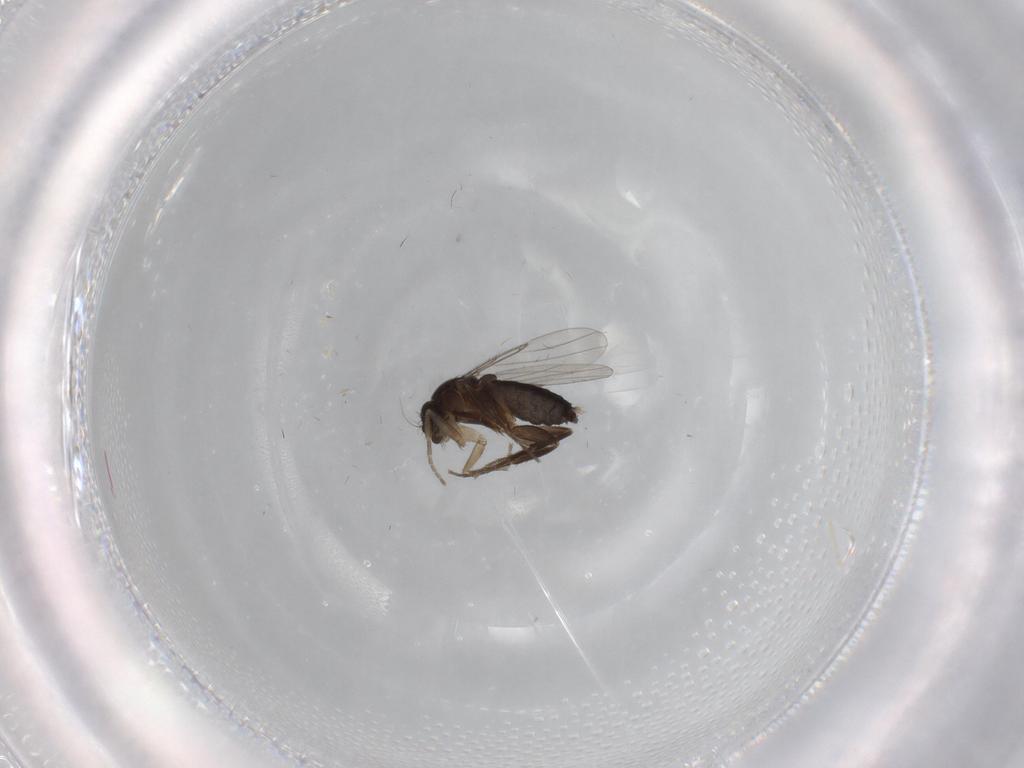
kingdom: Animalia
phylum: Arthropoda
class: Insecta
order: Diptera
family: Phoridae
